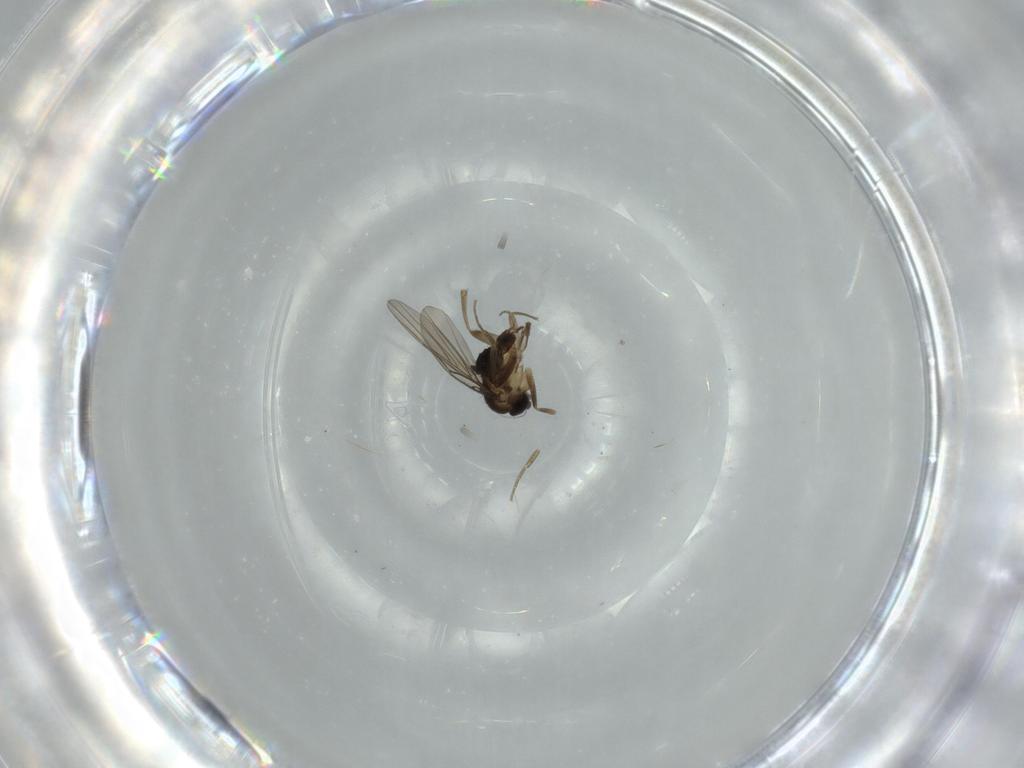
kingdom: Animalia
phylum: Arthropoda
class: Insecta
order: Diptera
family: Phoridae
